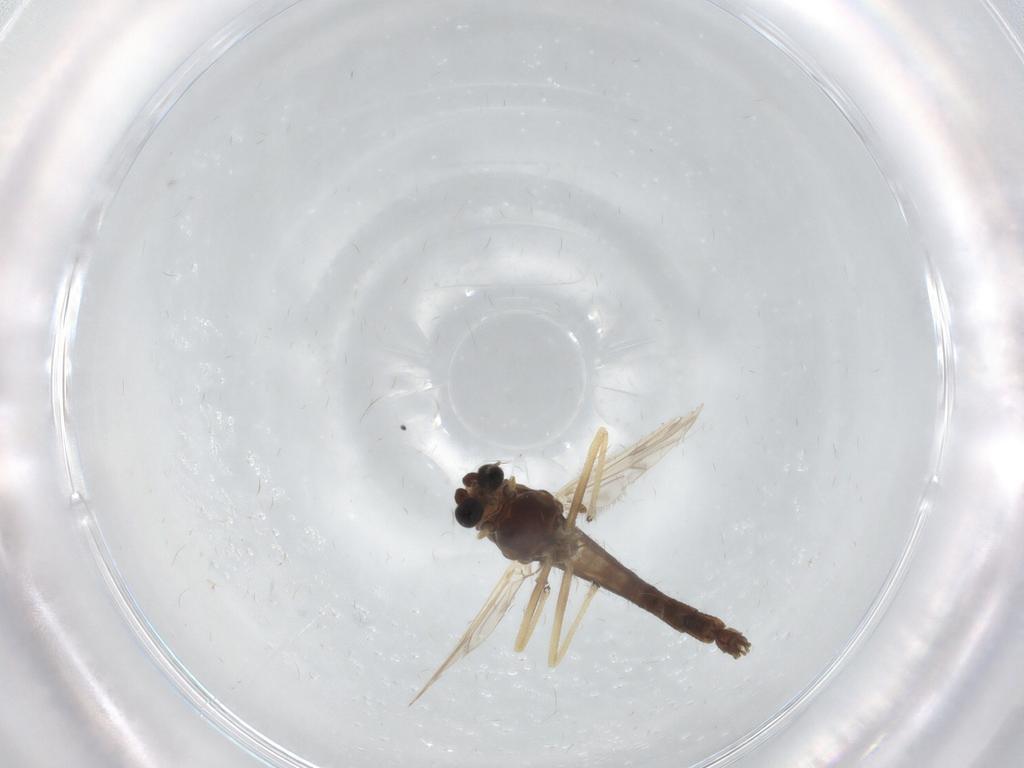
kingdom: Animalia
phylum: Arthropoda
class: Insecta
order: Diptera
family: Chironomidae
